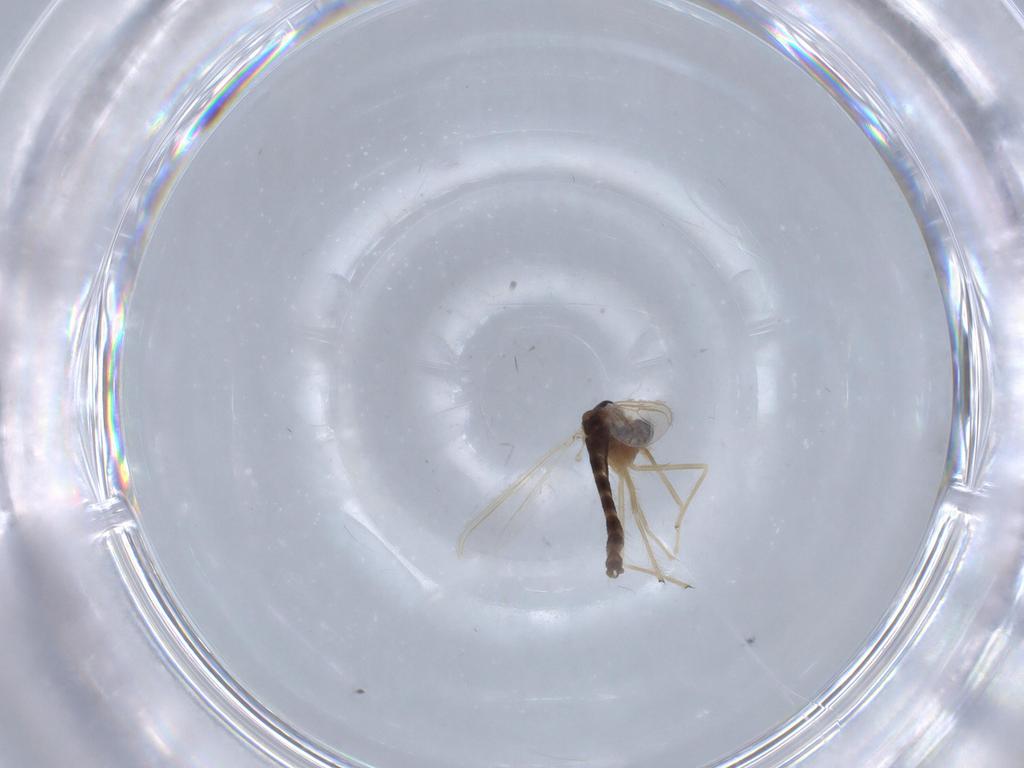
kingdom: Animalia
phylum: Arthropoda
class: Insecta
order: Diptera
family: Chironomidae
